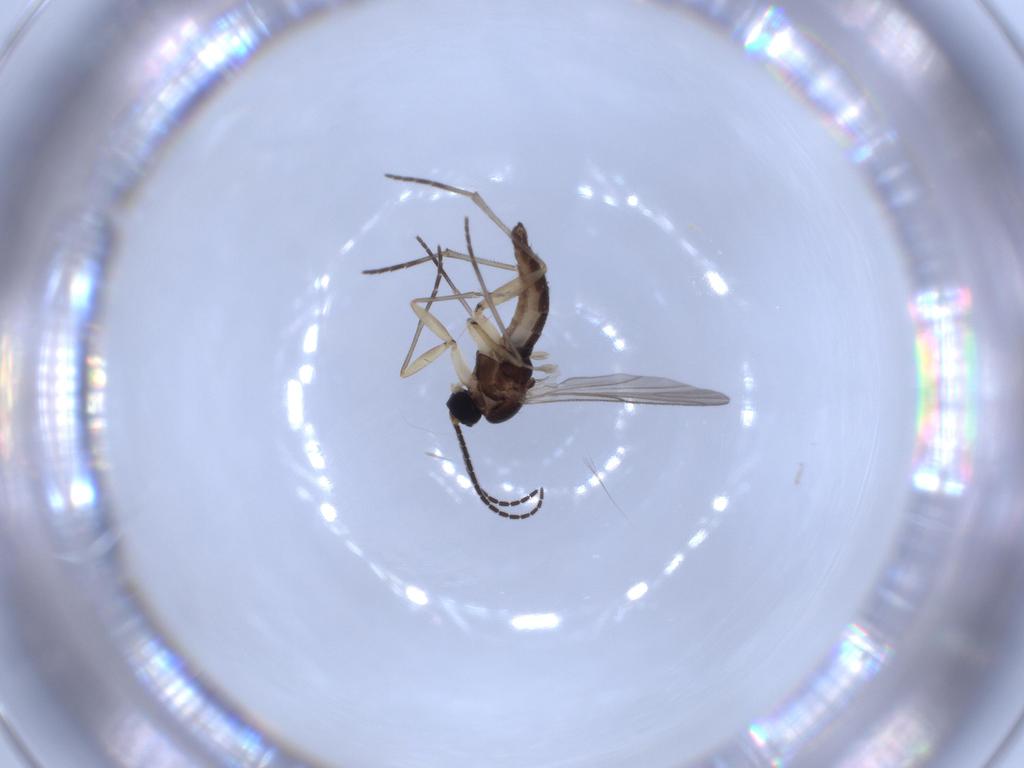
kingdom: Animalia
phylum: Arthropoda
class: Insecta
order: Diptera
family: Sciaridae
